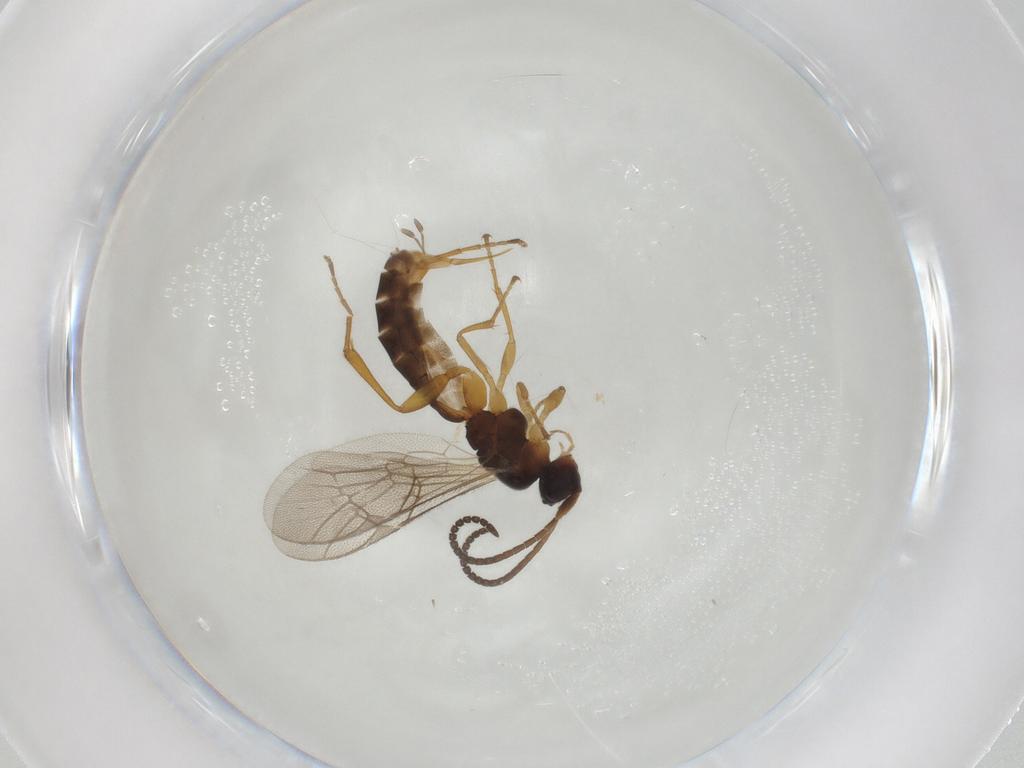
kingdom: Animalia
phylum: Arthropoda
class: Insecta
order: Hymenoptera
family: Ichneumonidae
